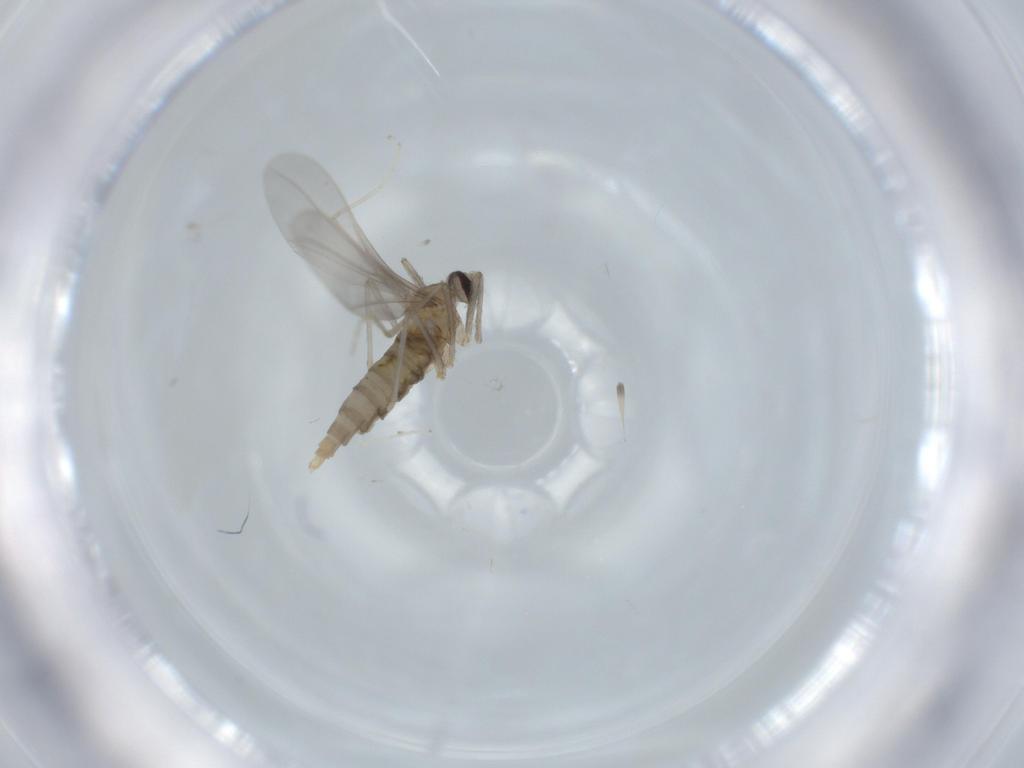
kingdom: Animalia
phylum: Arthropoda
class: Insecta
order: Diptera
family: Cecidomyiidae
